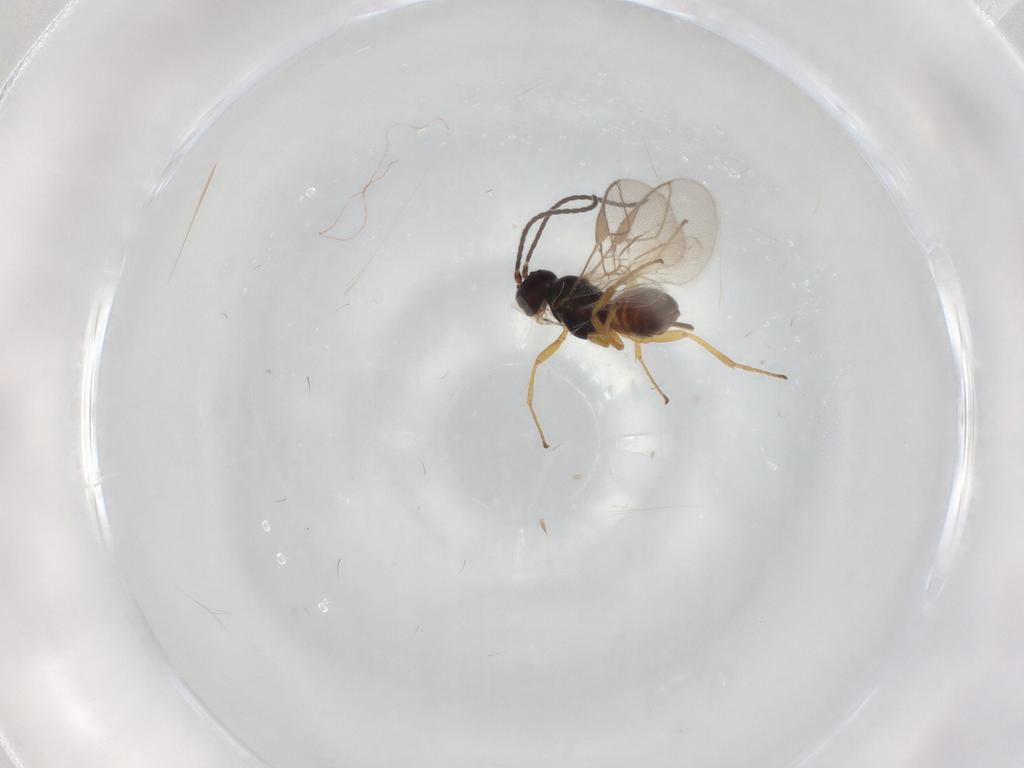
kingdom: Animalia
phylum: Arthropoda
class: Insecta
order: Hymenoptera
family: Braconidae
